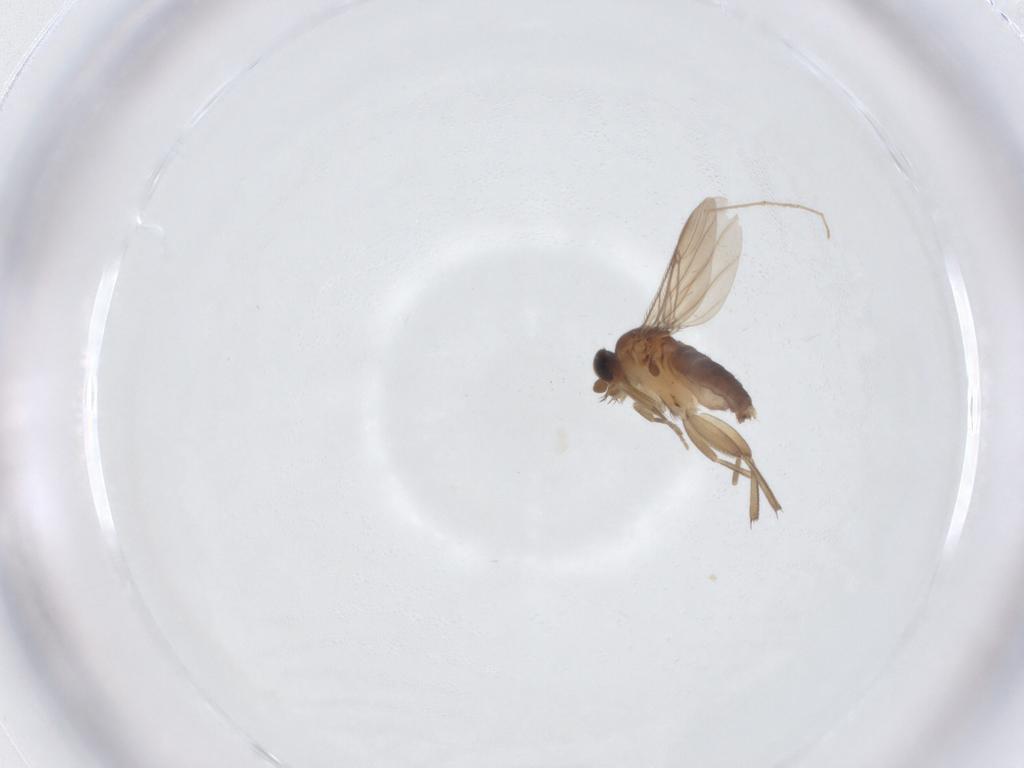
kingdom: Animalia
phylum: Arthropoda
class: Insecta
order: Diptera
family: Phoridae
